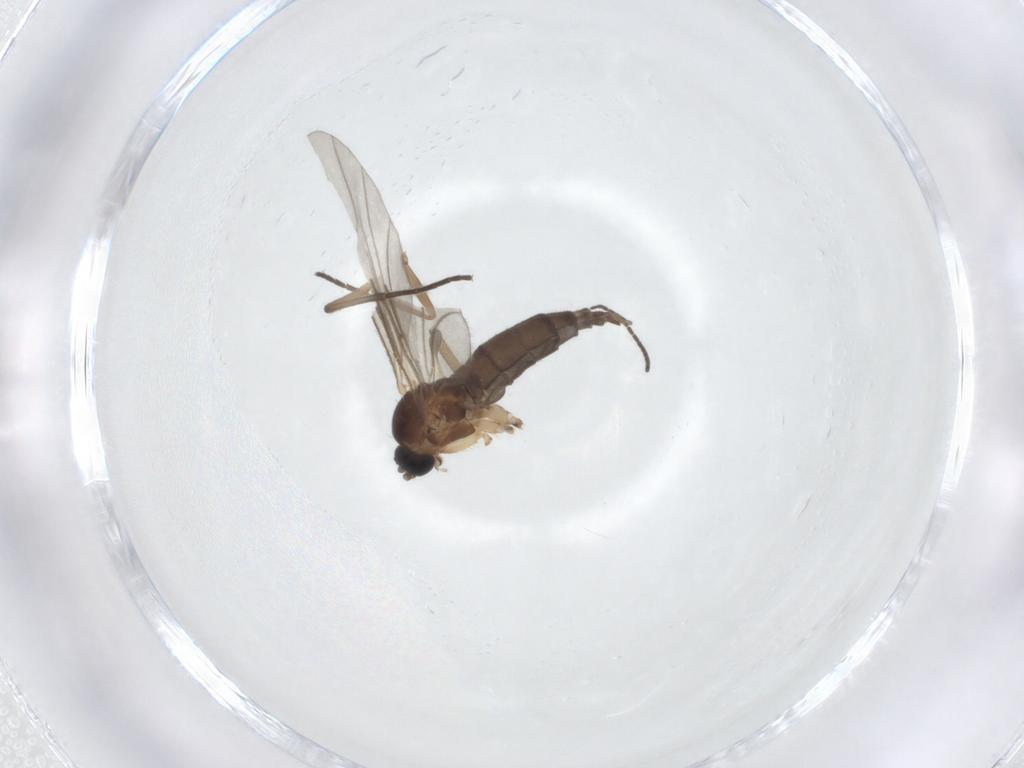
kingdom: Animalia
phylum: Arthropoda
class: Insecta
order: Diptera
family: Sciaridae
